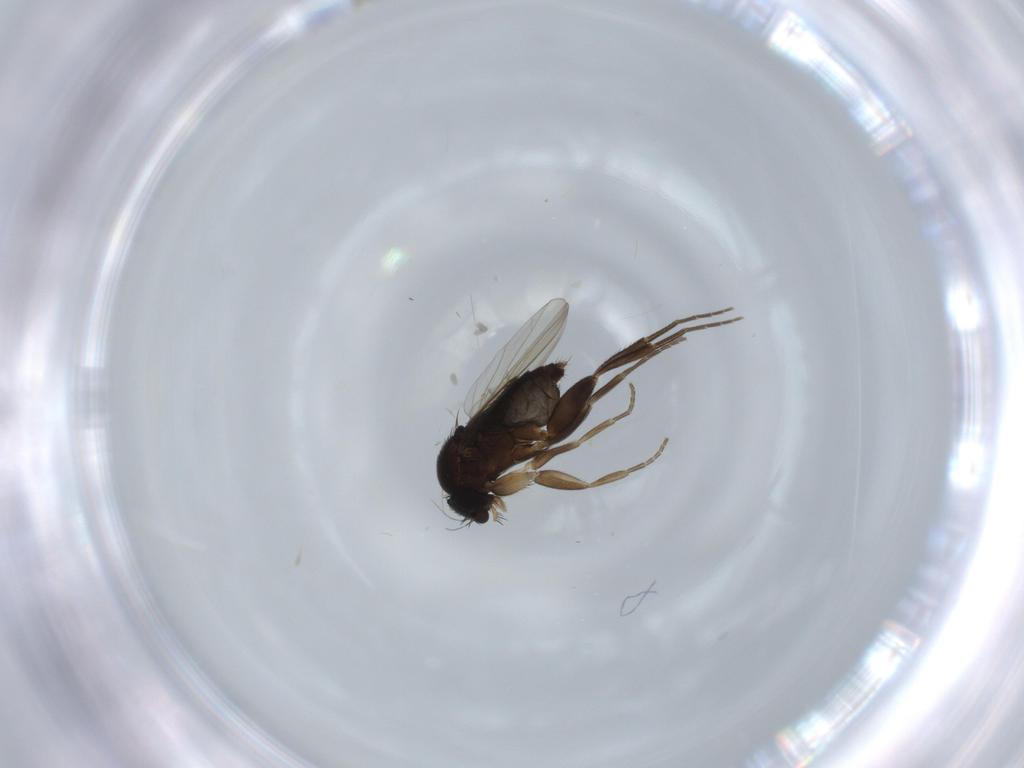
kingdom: Animalia
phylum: Arthropoda
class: Insecta
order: Diptera
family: Phoridae
